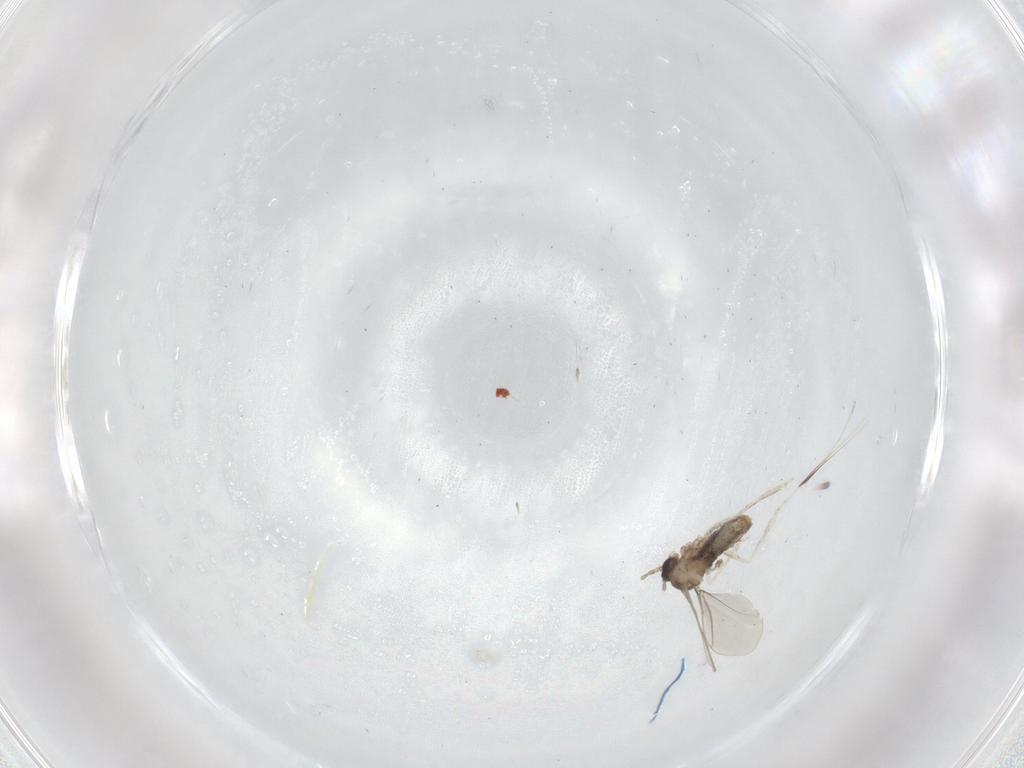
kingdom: Animalia
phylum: Arthropoda
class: Insecta
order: Diptera
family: Cecidomyiidae
